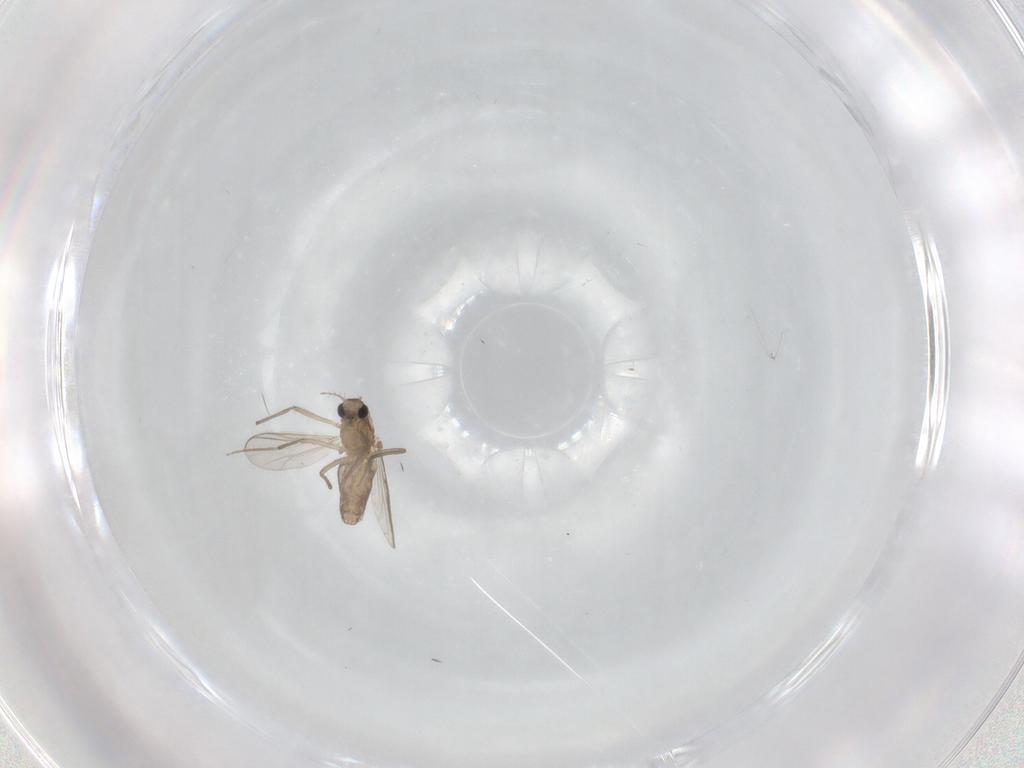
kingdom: Animalia
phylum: Arthropoda
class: Insecta
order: Diptera
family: Chironomidae
